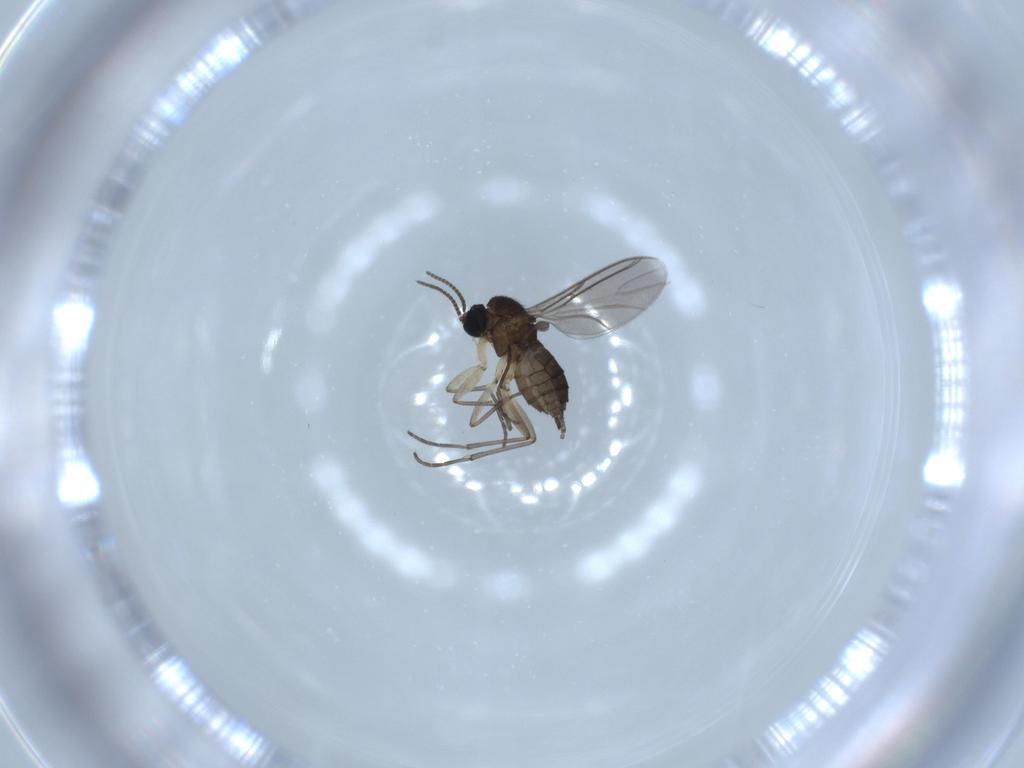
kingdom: Animalia
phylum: Arthropoda
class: Insecta
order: Diptera
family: Sciaridae
